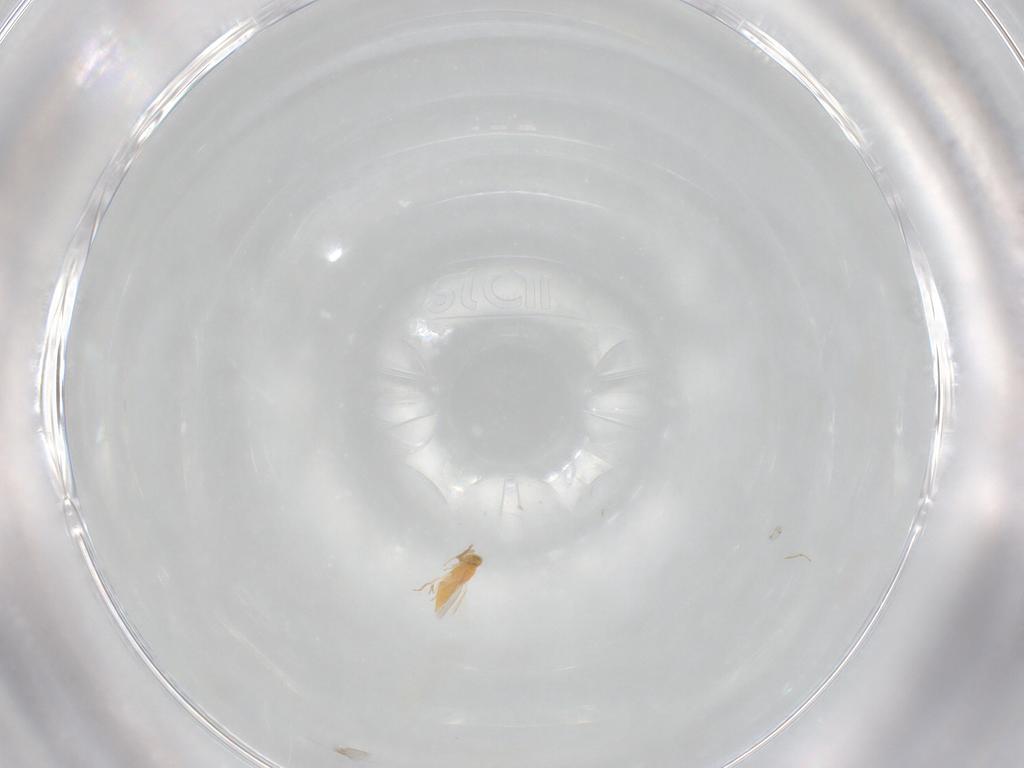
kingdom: Animalia
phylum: Arthropoda
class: Insecta
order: Hymenoptera
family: Aphelinidae
